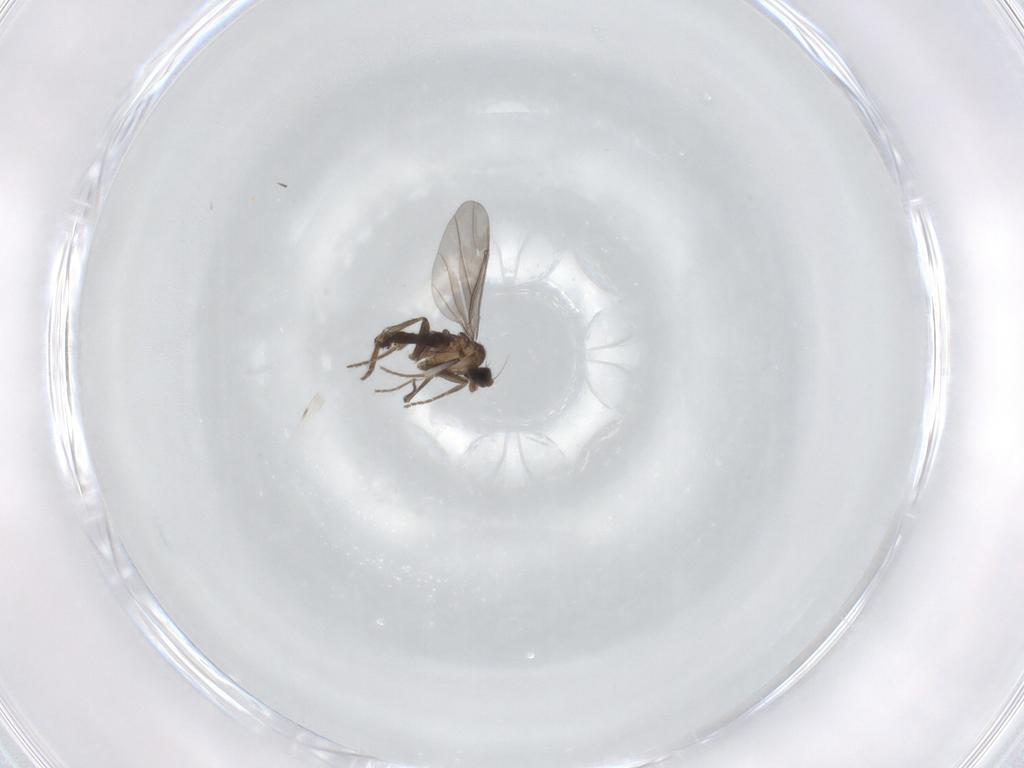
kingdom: Animalia
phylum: Arthropoda
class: Insecta
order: Diptera
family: Phoridae
